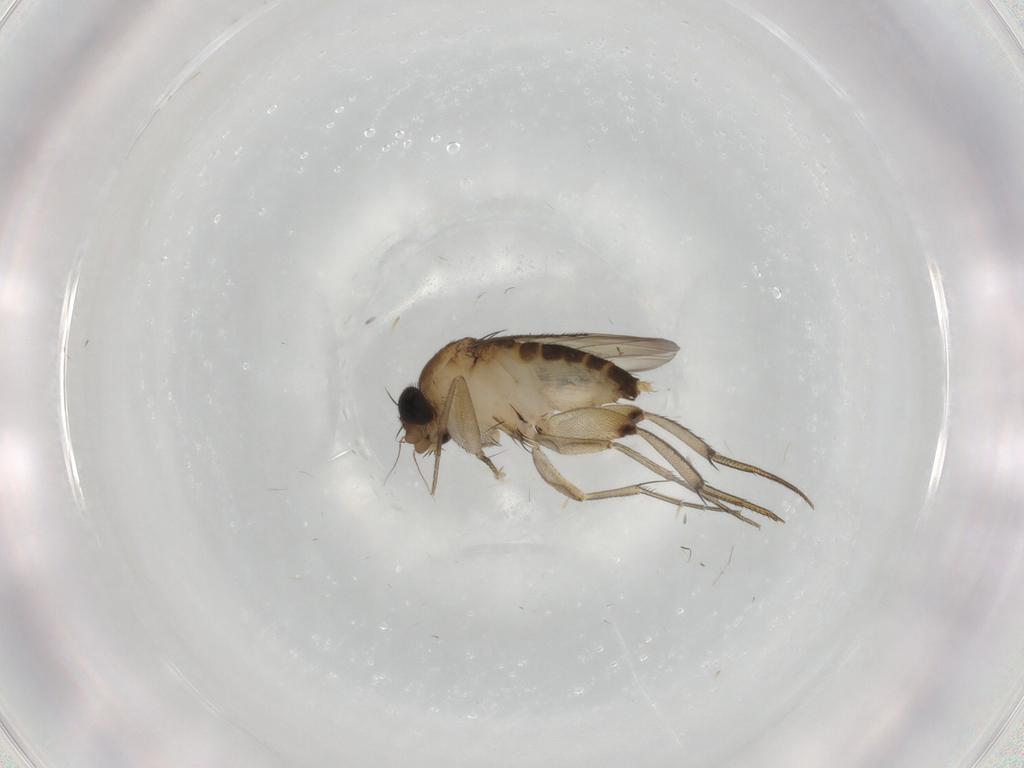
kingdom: Animalia
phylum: Arthropoda
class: Insecta
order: Diptera
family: Phoridae
